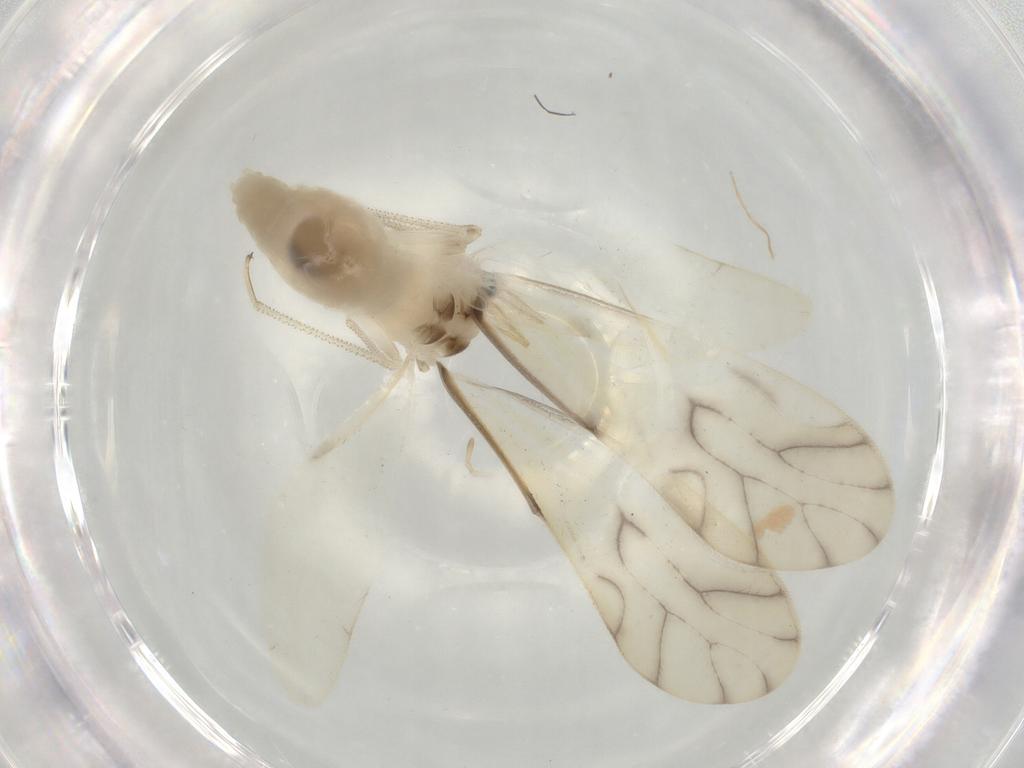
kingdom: Animalia
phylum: Arthropoda
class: Insecta
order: Psocodea
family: Caeciliusidae
